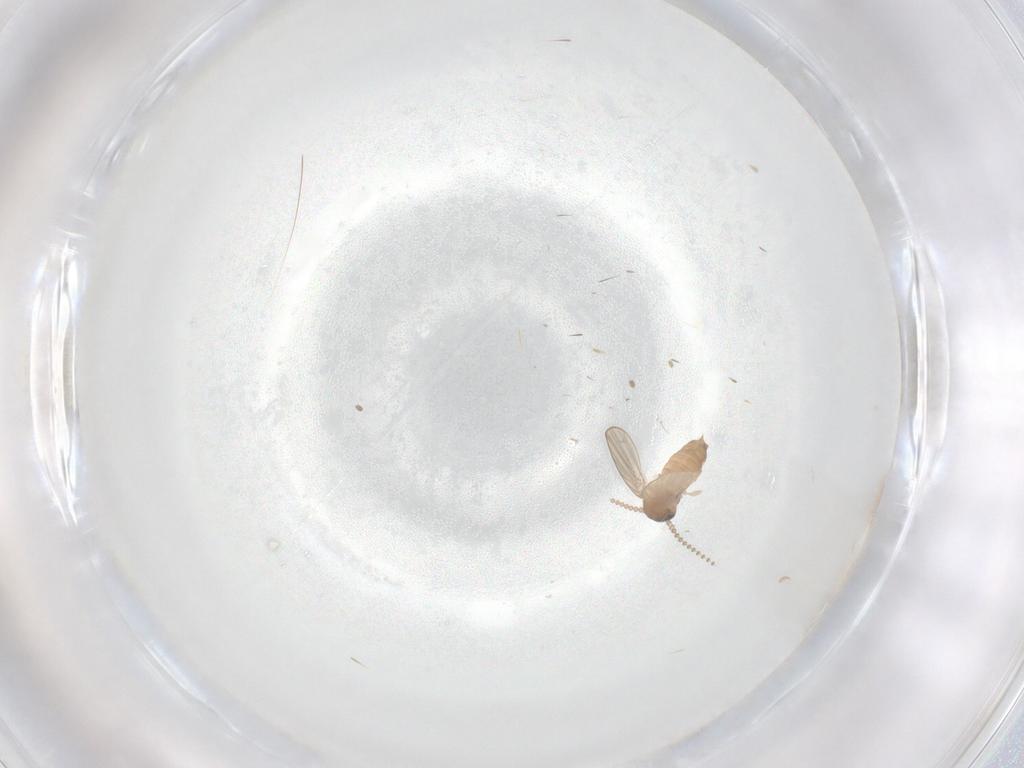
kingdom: Animalia
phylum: Arthropoda
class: Insecta
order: Diptera
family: Psychodidae
